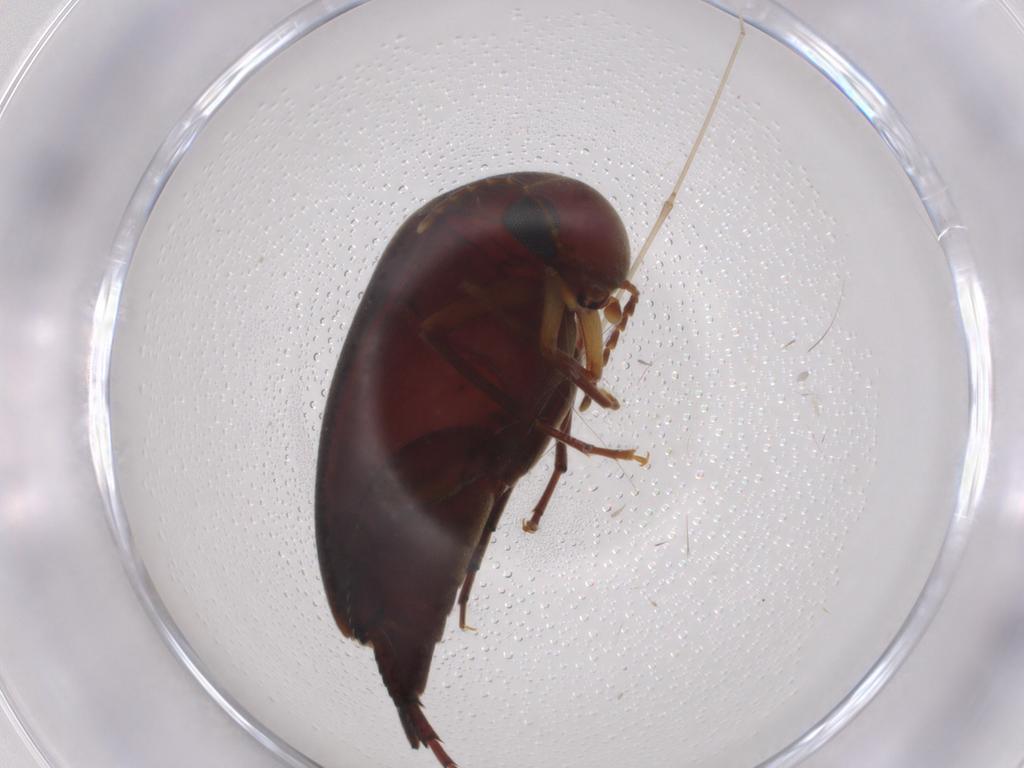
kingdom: Animalia
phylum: Arthropoda
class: Insecta
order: Coleoptera
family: Mordellidae
